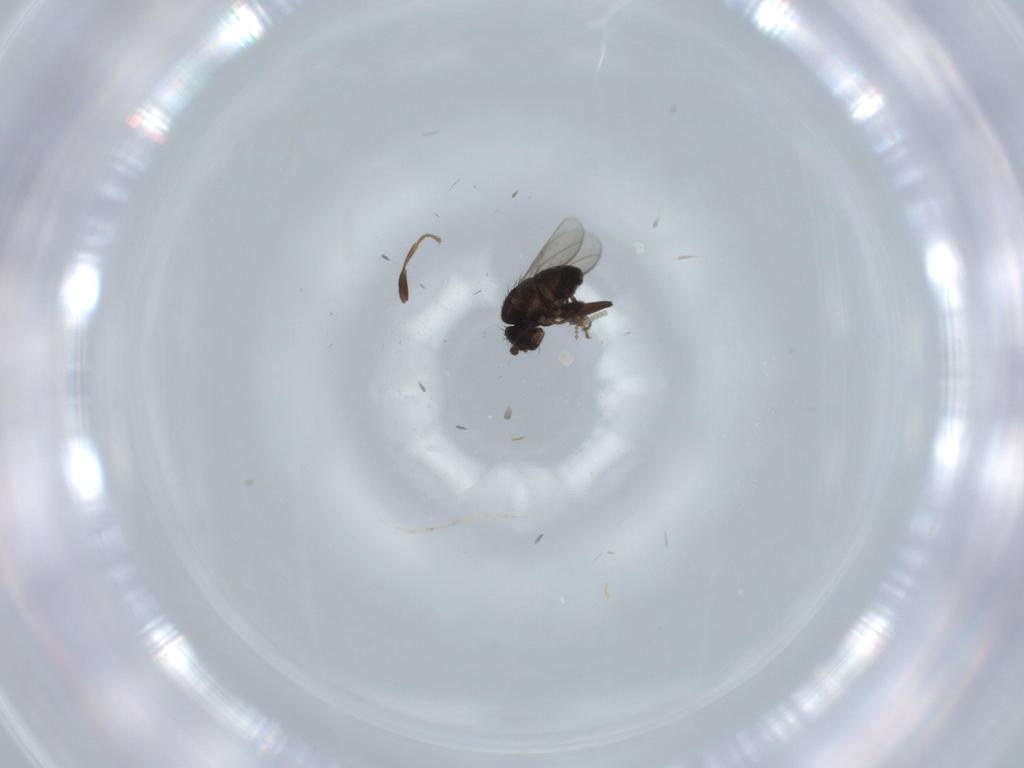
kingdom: Animalia
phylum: Arthropoda
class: Insecta
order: Diptera
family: Sphaeroceridae
